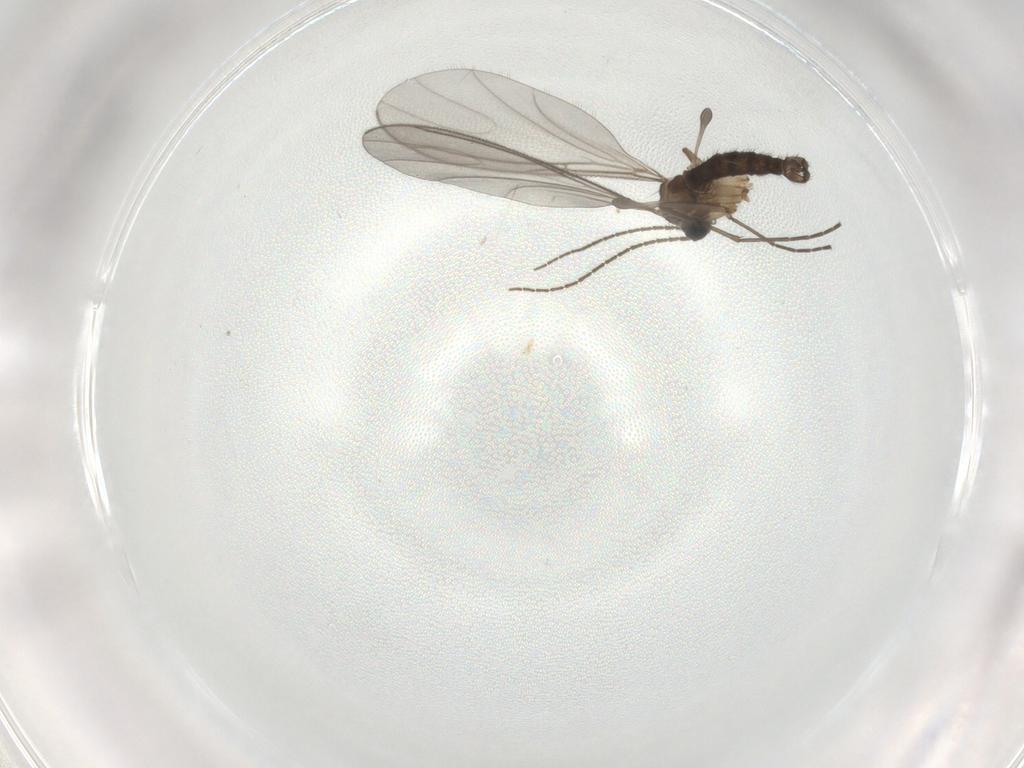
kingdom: Animalia
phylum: Arthropoda
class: Insecta
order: Diptera
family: Sciaridae
